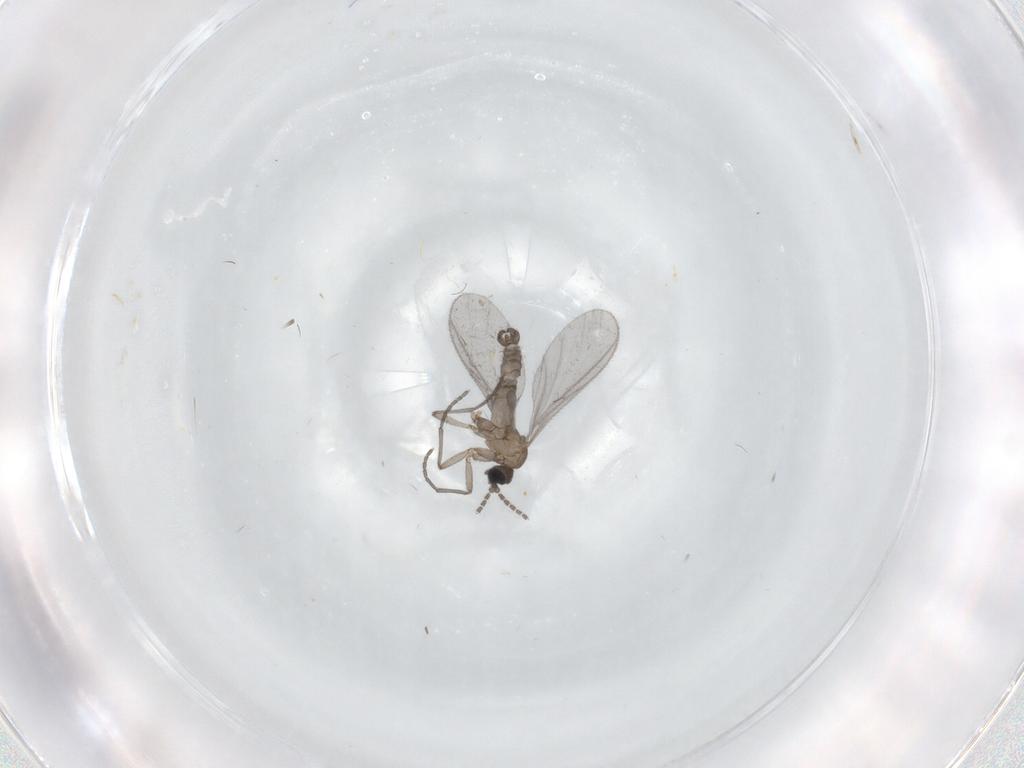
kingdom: Animalia
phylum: Arthropoda
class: Insecta
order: Diptera
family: Sciaridae
